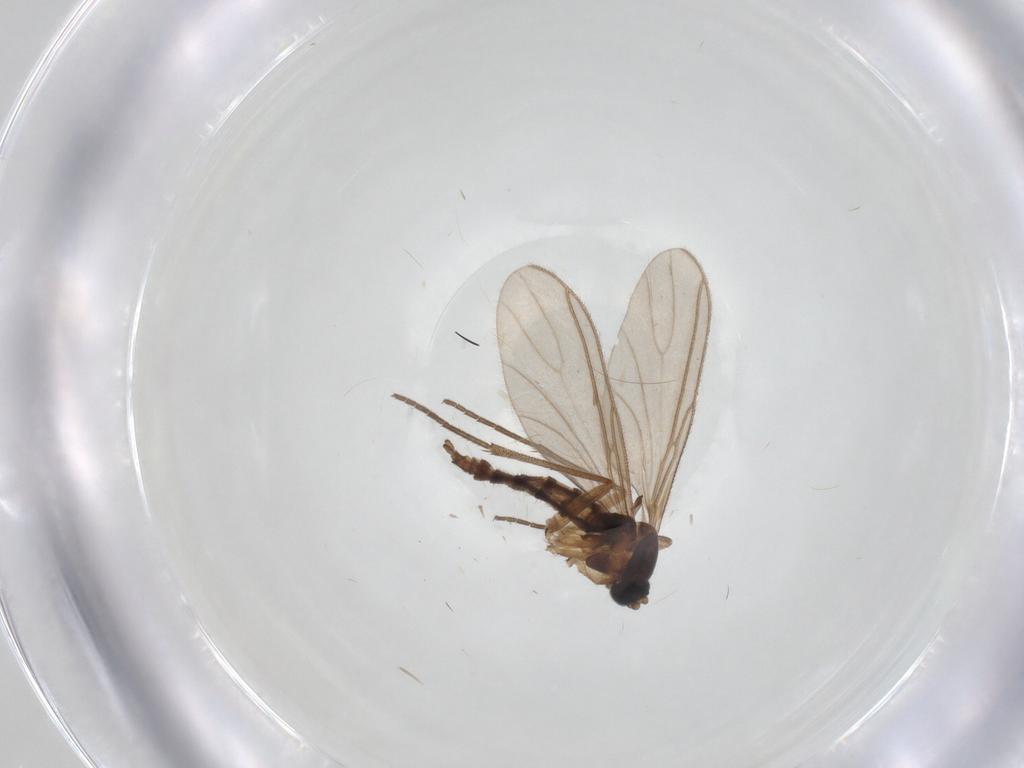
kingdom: Animalia
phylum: Arthropoda
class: Insecta
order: Diptera
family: Sciaridae
